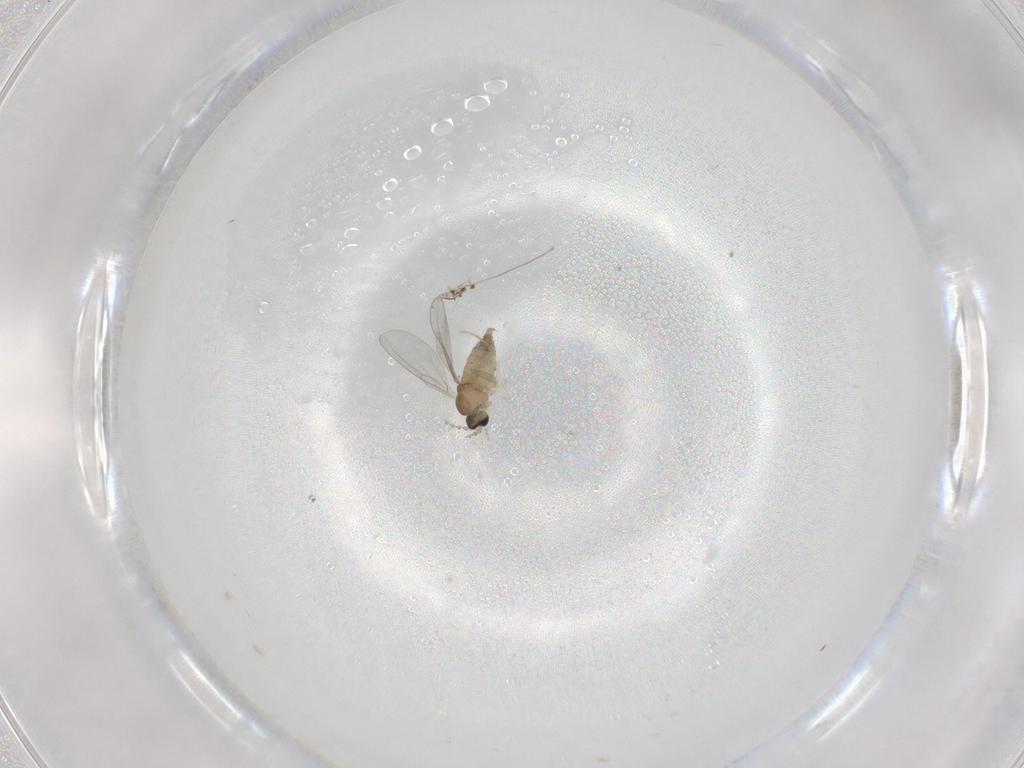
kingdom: Animalia
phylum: Arthropoda
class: Insecta
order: Diptera
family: Cecidomyiidae
